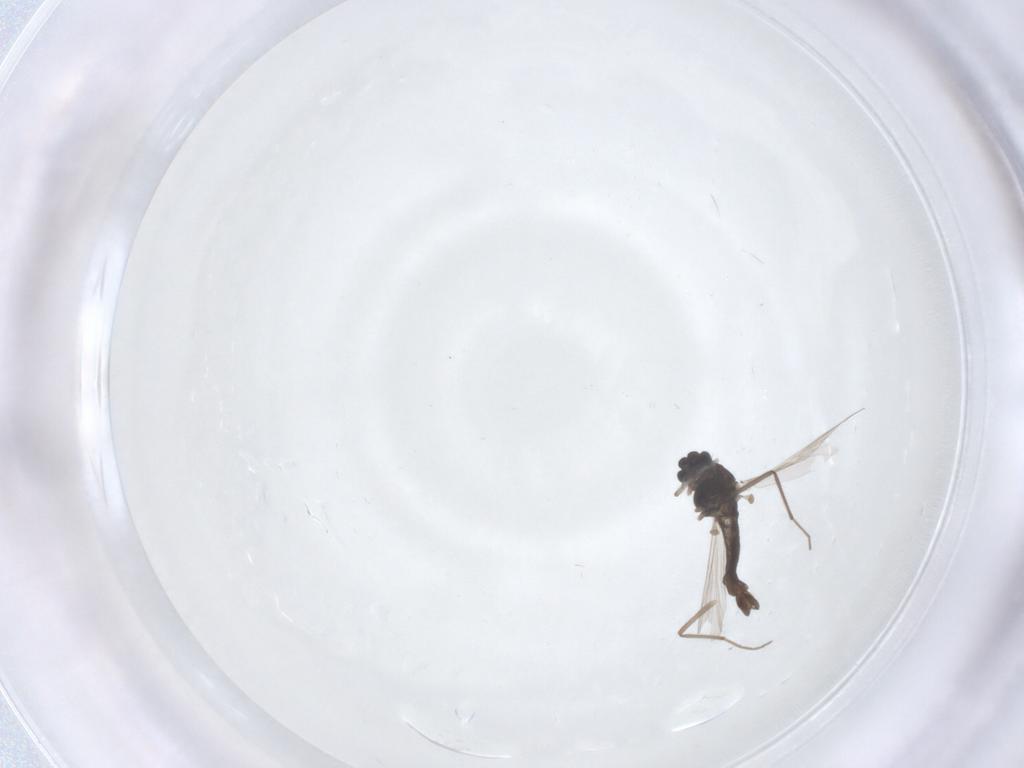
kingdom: Animalia
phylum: Arthropoda
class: Insecta
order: Diptera
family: Chironomidae
